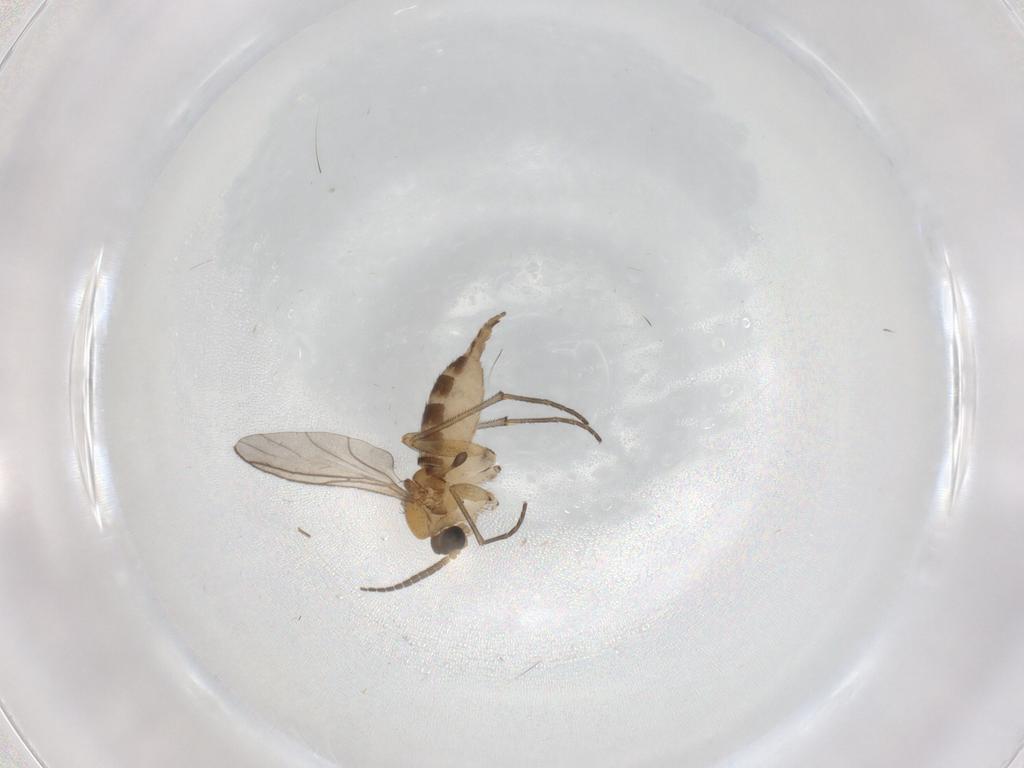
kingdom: Animalia
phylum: Arthropoda
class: Insecta
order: Diptera
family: Sciaridae
